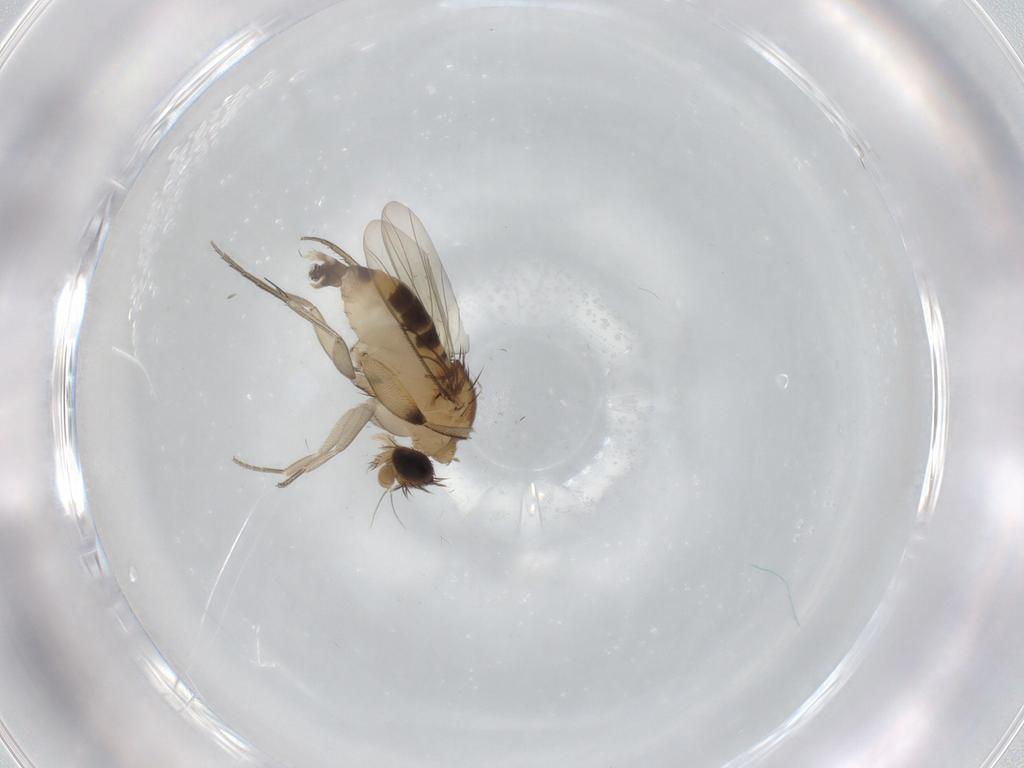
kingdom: Animalia
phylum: Arthropoda
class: Insecta
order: Diptera
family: Phoridae
